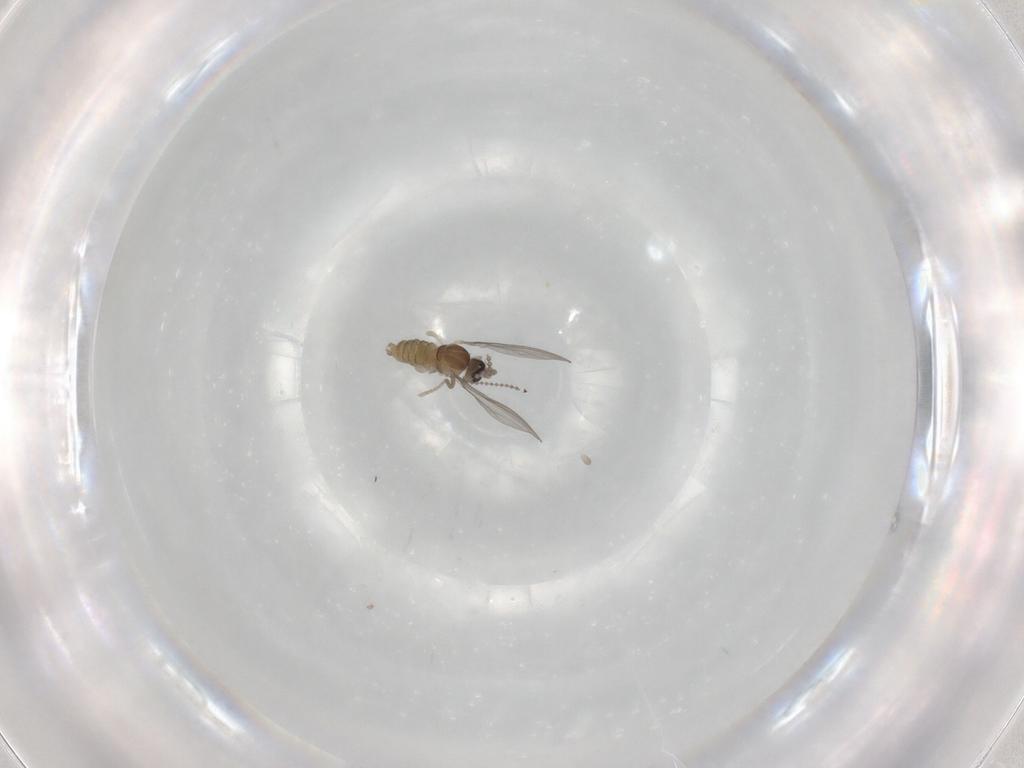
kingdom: Animalia
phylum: Arthropoda
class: Insecta
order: Diptera
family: Cecidomyiidae
